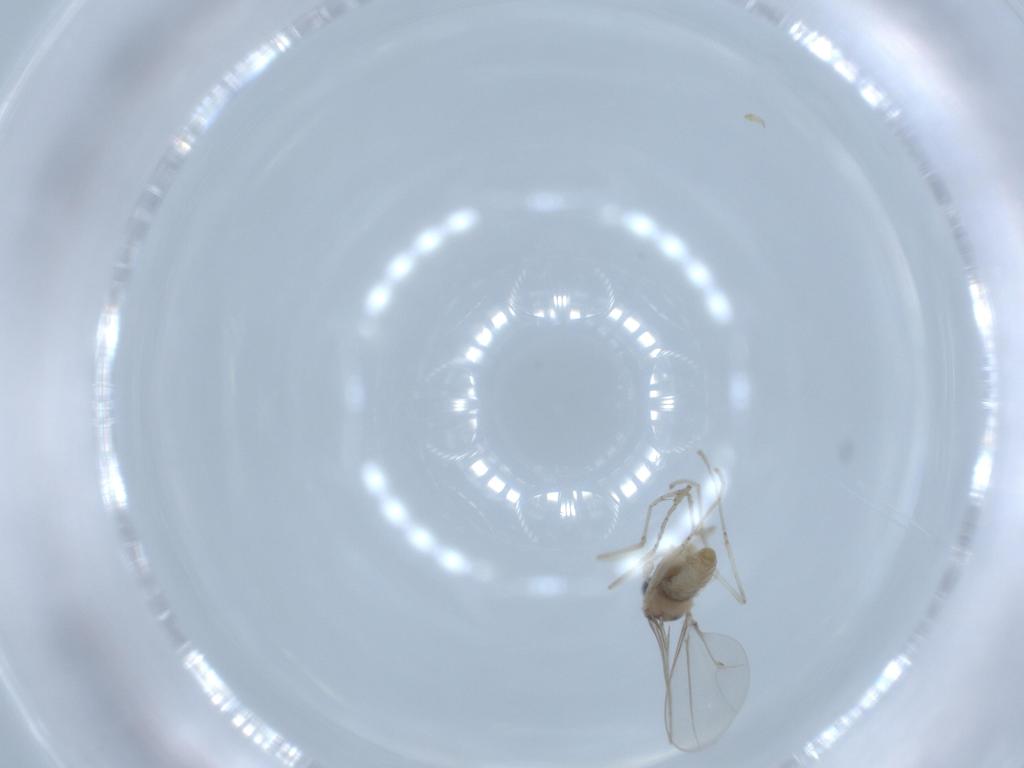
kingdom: Animalia
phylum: Arthropoda
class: Insecta
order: Diptera
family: Cecidomyiidae
